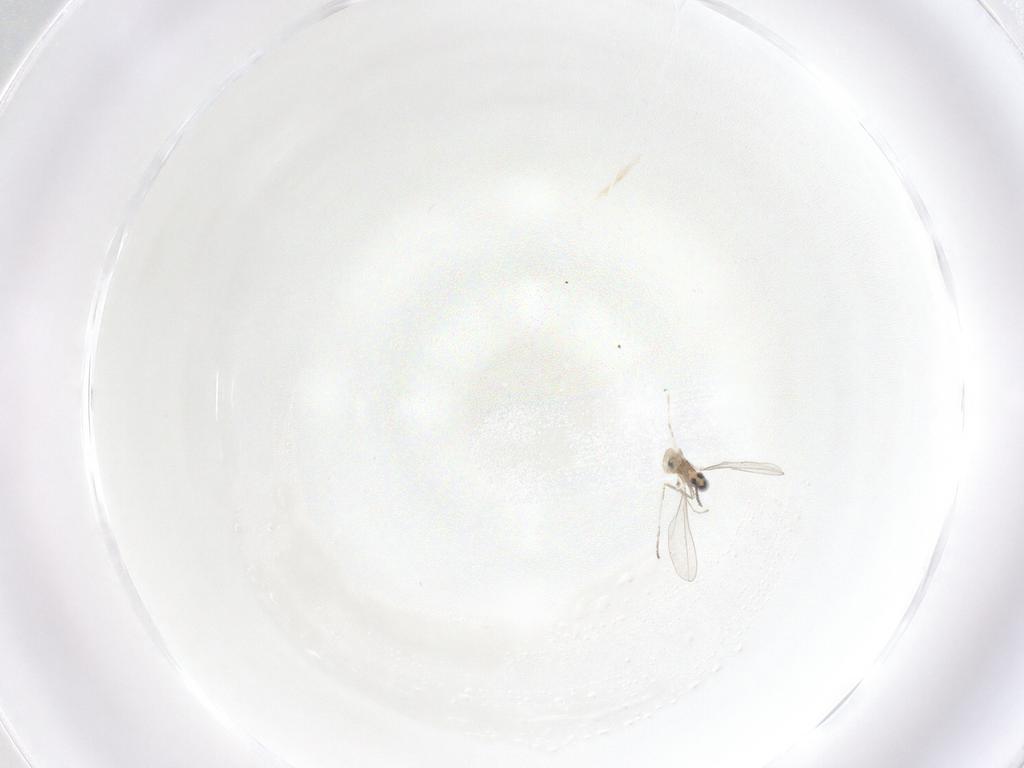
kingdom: Animalia
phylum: Arthropoda
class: Insecta
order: Diptera
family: Cecidomyiidae
